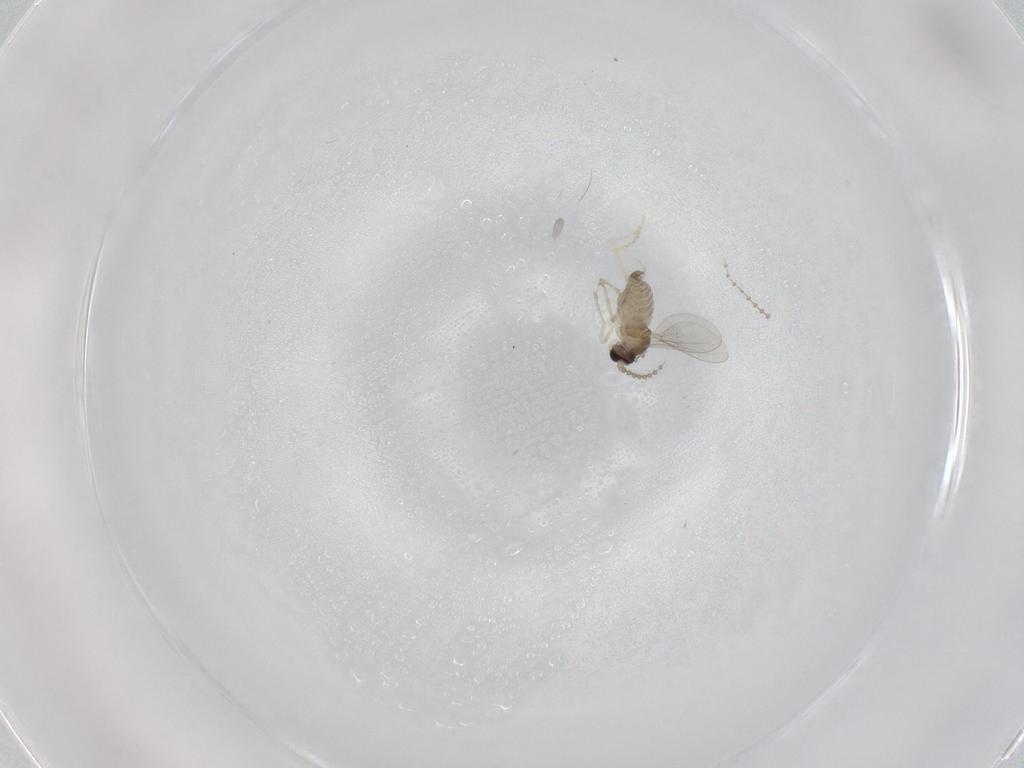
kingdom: Animalia
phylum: Arthropoda
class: Insecta
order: Diptera
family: Cecidomyiidae
